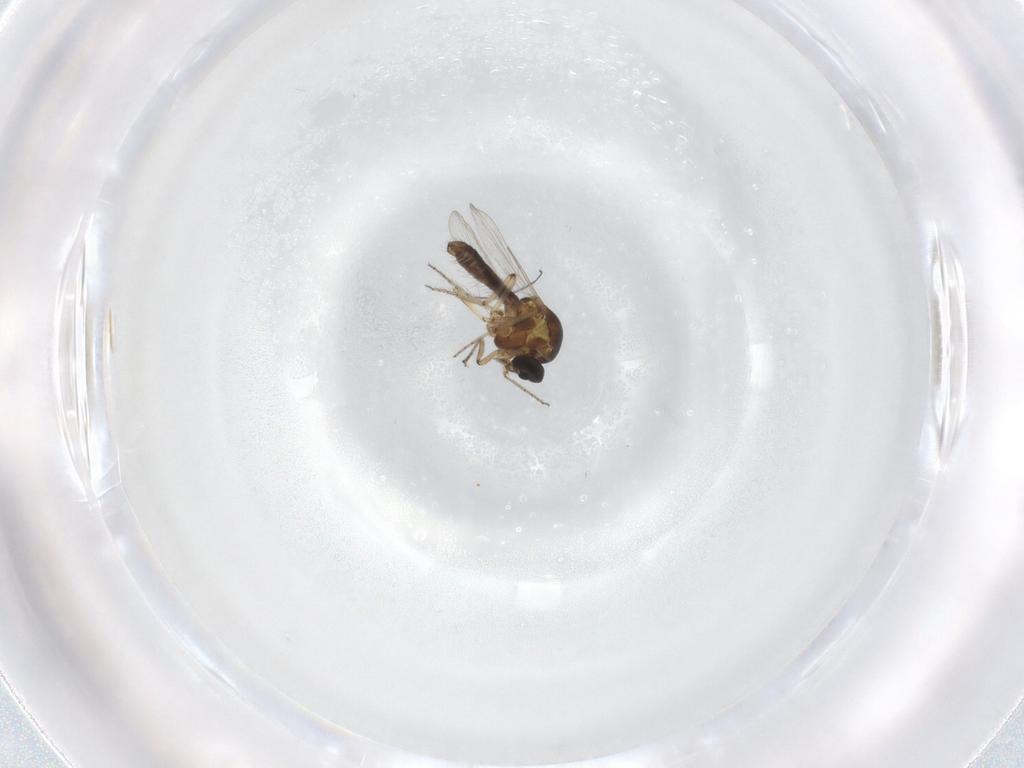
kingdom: Animalia
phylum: Arthropoda
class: Insecta
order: Diptera
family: Ceratopogonidae
